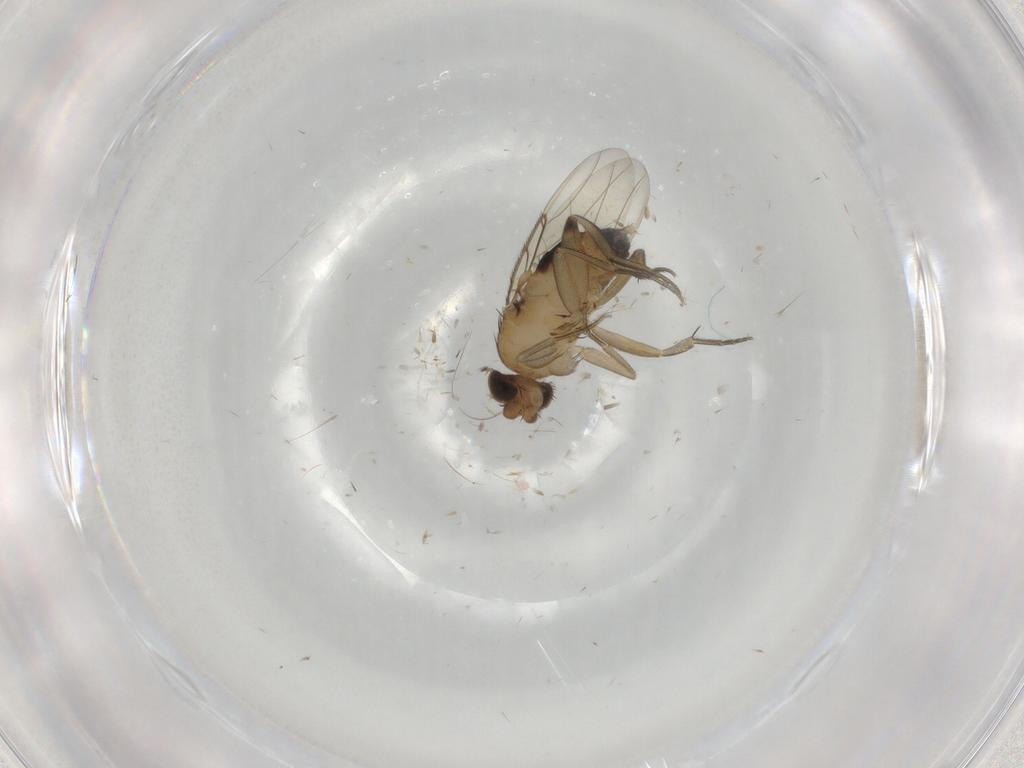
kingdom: Animalia
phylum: Arthropoda
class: Insecta
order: Diptera
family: Phoridae
